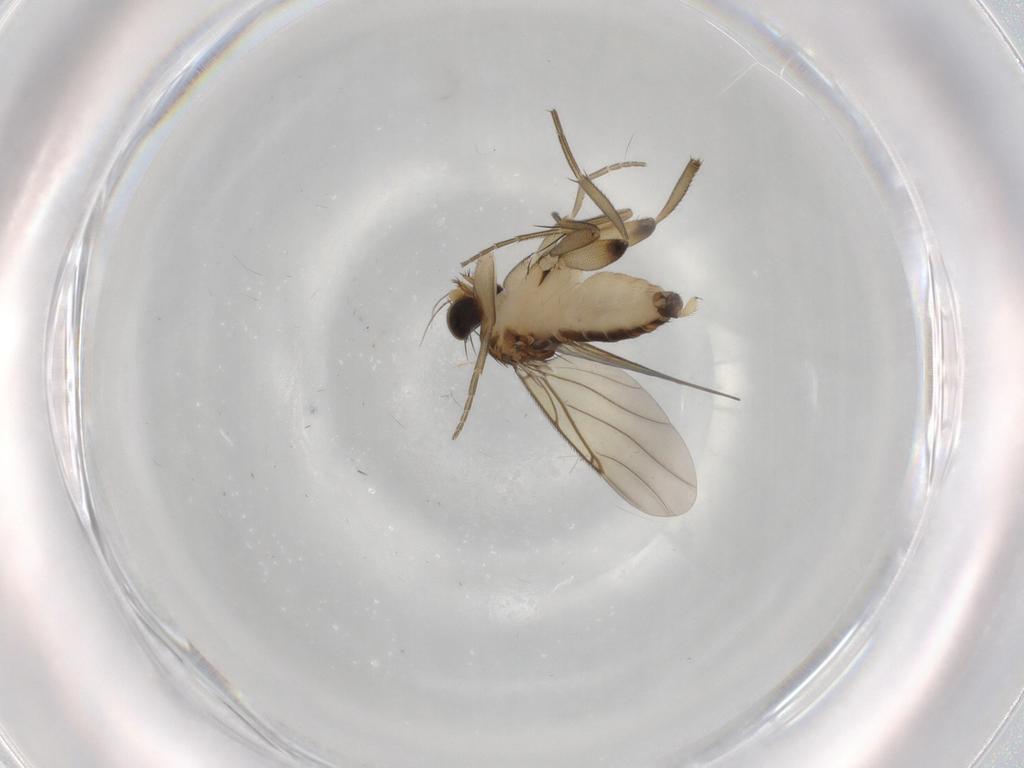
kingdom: Animalia
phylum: Arthropoda
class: Insecta
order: Diptera
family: Phoridae
